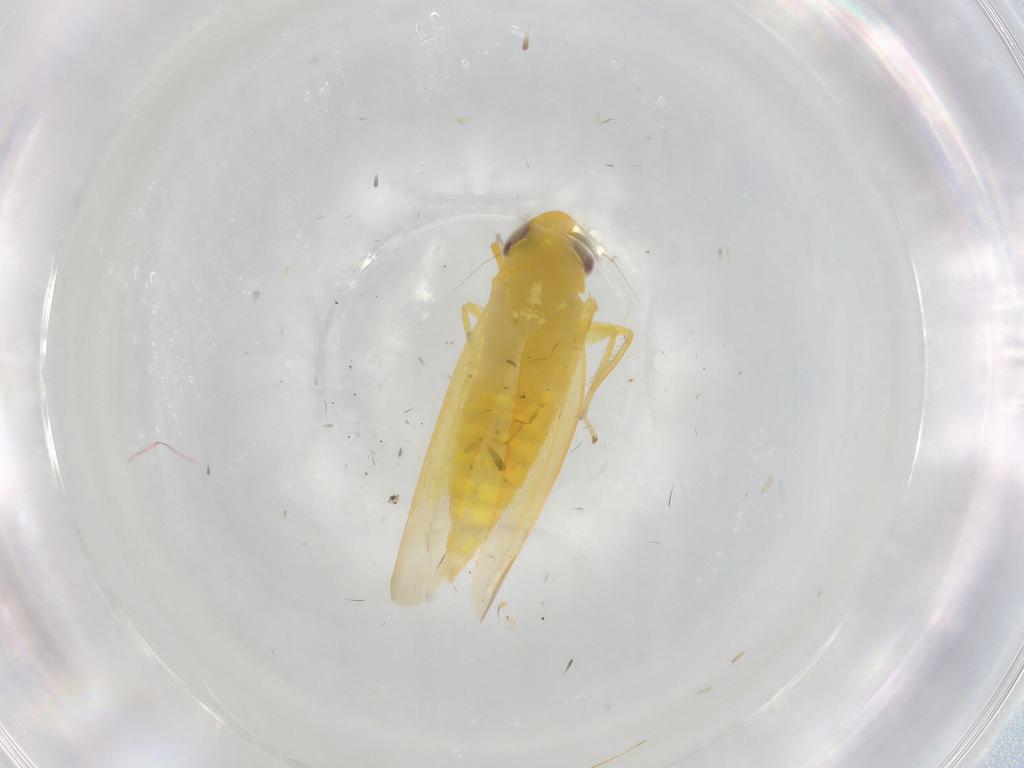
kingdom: Animalia
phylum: Arthropoda
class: Insecta
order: Hemiptera
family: Cicadellidae
